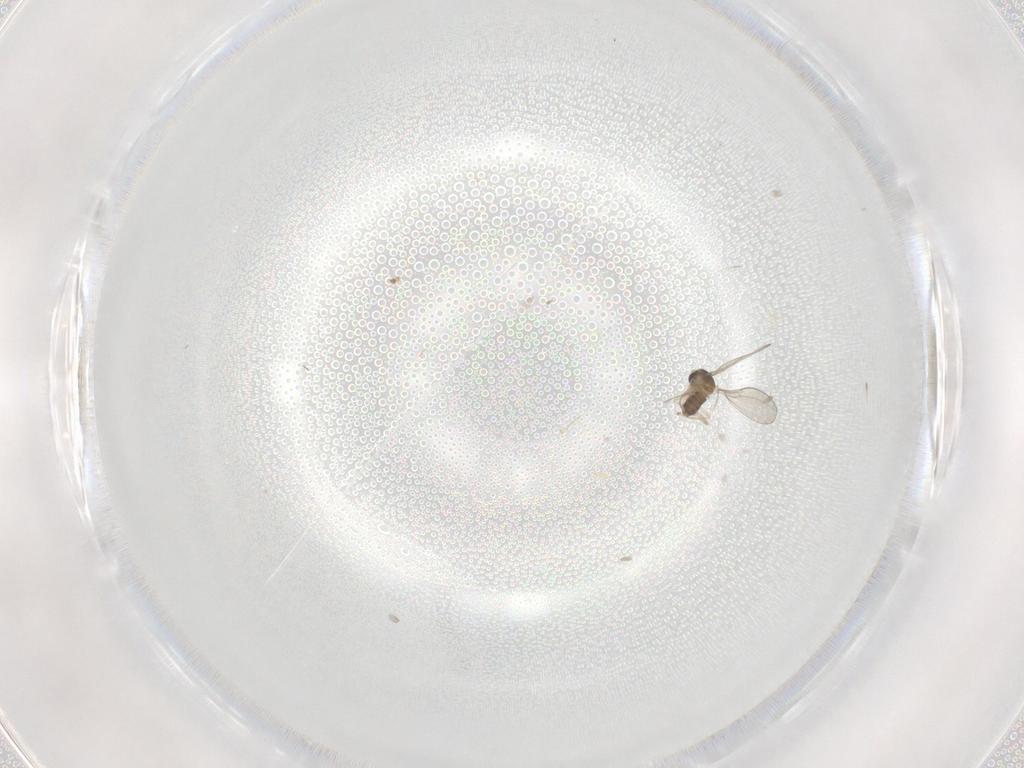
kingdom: Animalia
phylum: Arthropoda
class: Insecta
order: Diptera
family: Cecidomyiidae
